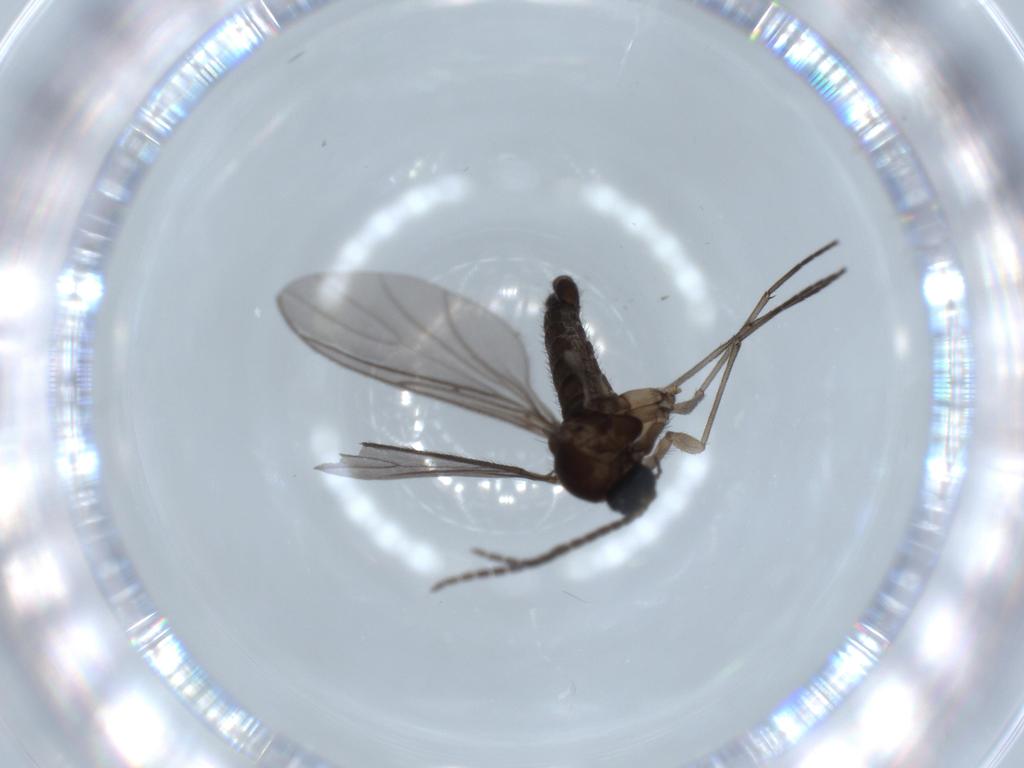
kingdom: Animalia
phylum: Arthropoda
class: Insecta
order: Diptera
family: Sciaridae
